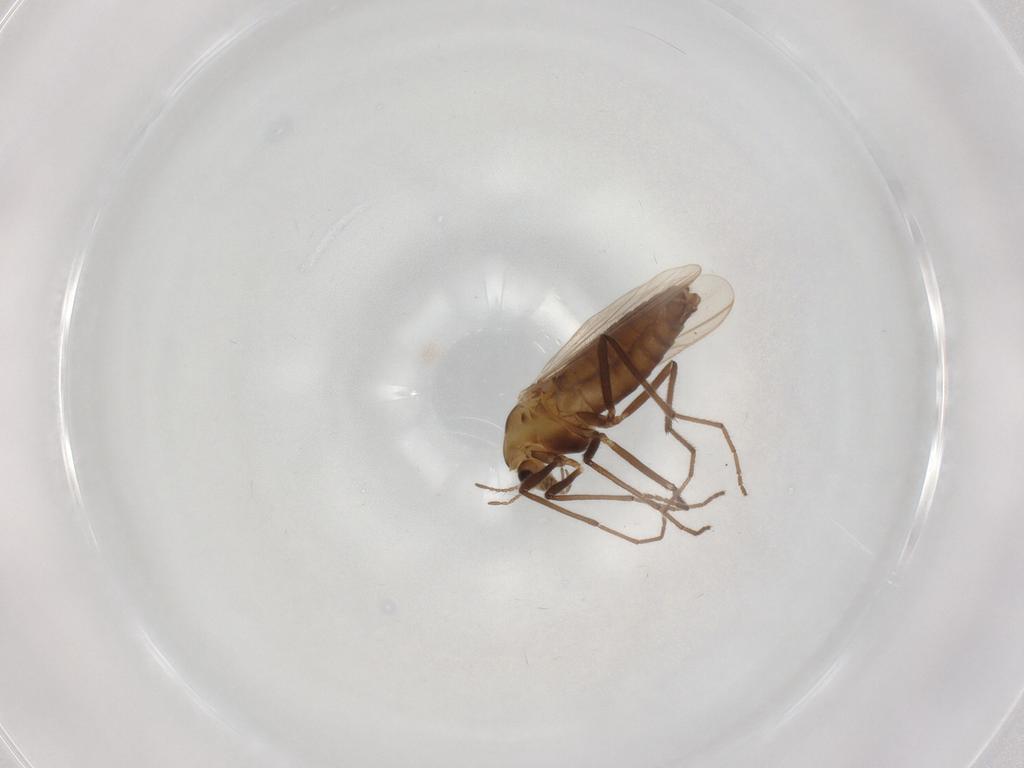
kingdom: Animalia
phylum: Arthropoda
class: Insecta
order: Diptera
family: Chironomidae
